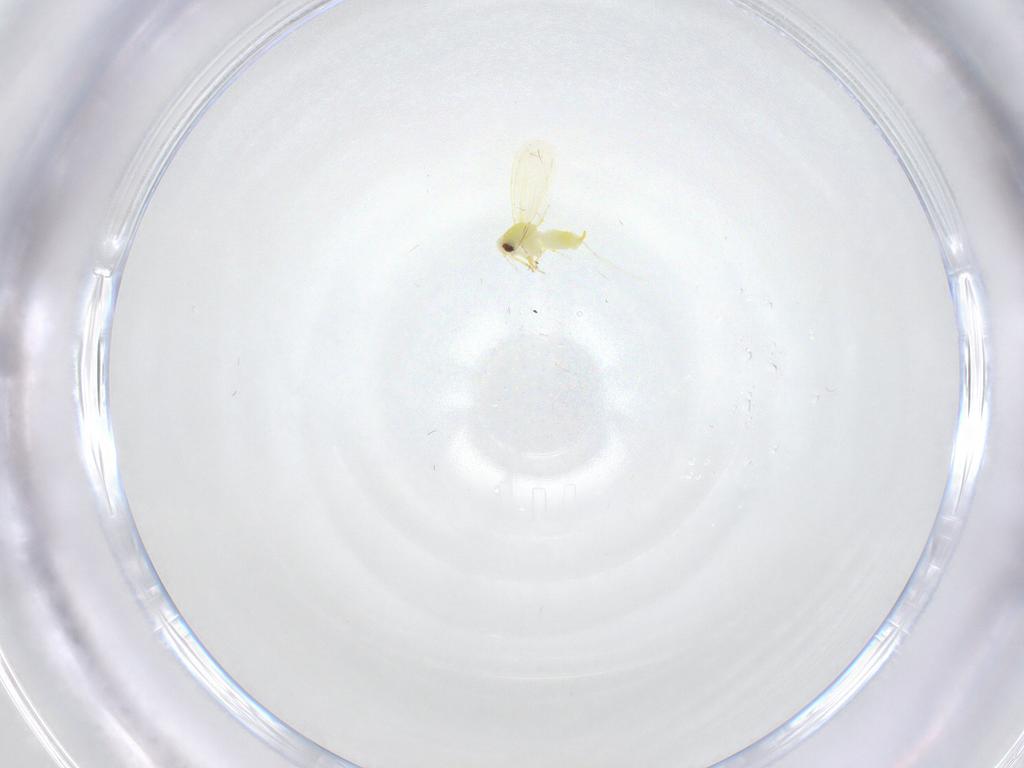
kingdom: Animalia
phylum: Arthropoda
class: Insecta
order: Hemiptera
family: Aleyrodidae
